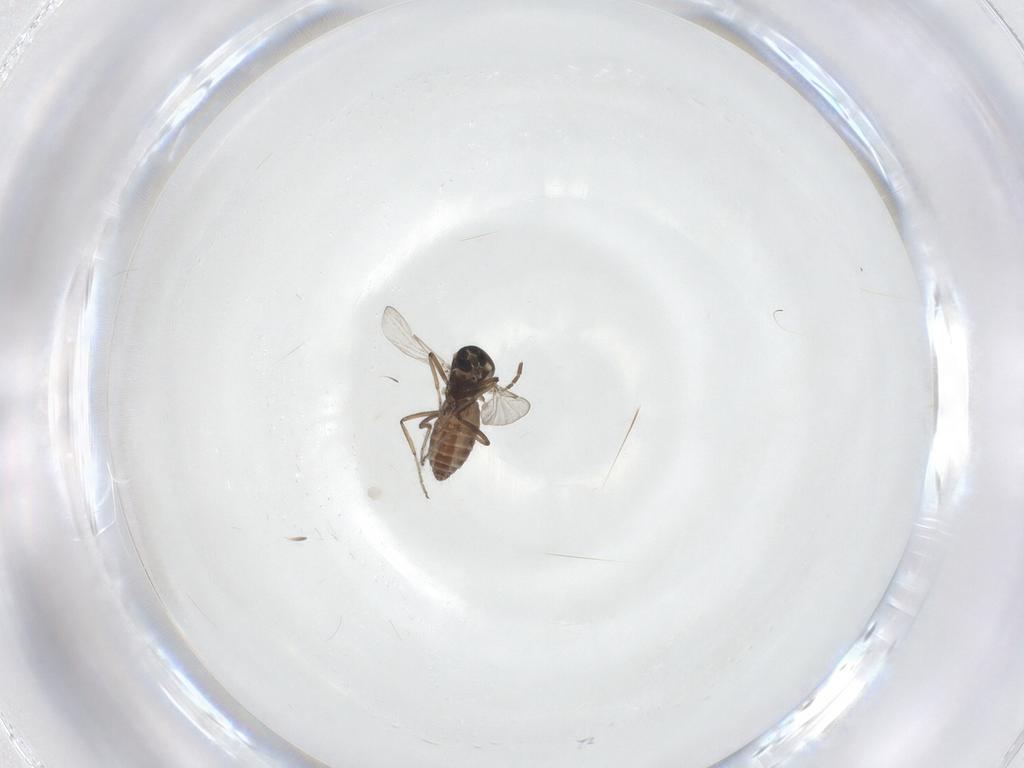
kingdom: Animalia
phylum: Arthropoda
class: Insecta
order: Diptera
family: Ceratopogonidae
